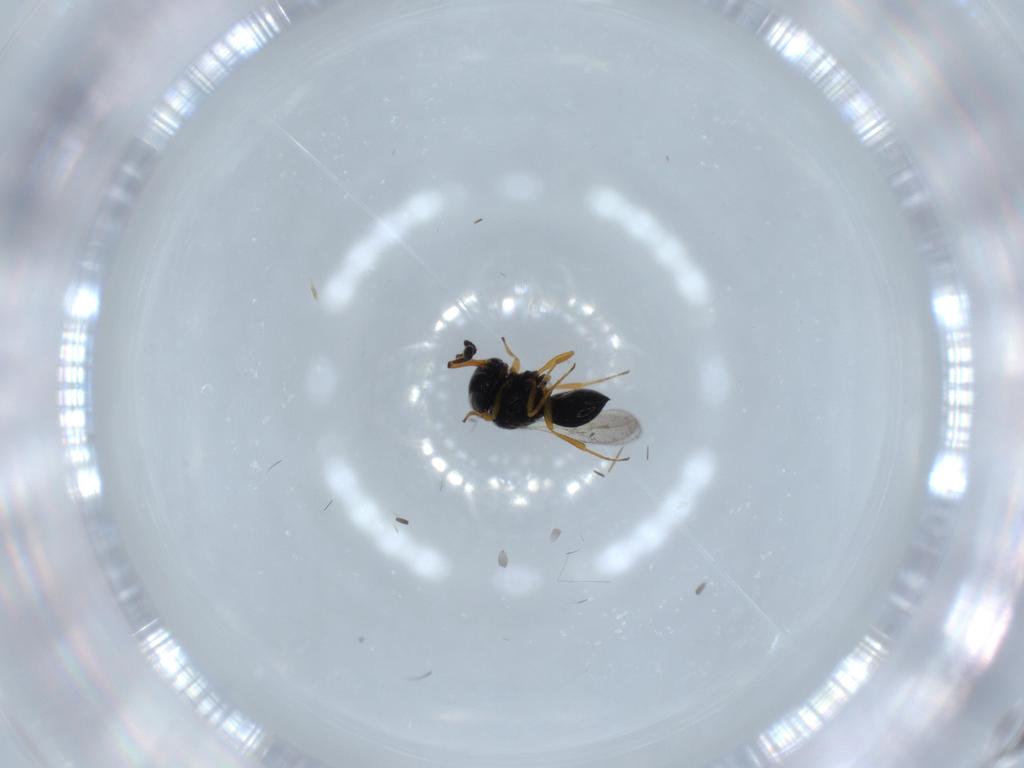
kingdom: Animalia
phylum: Arthropoda
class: Insecta
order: Hymenoptera
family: Scelionidae
